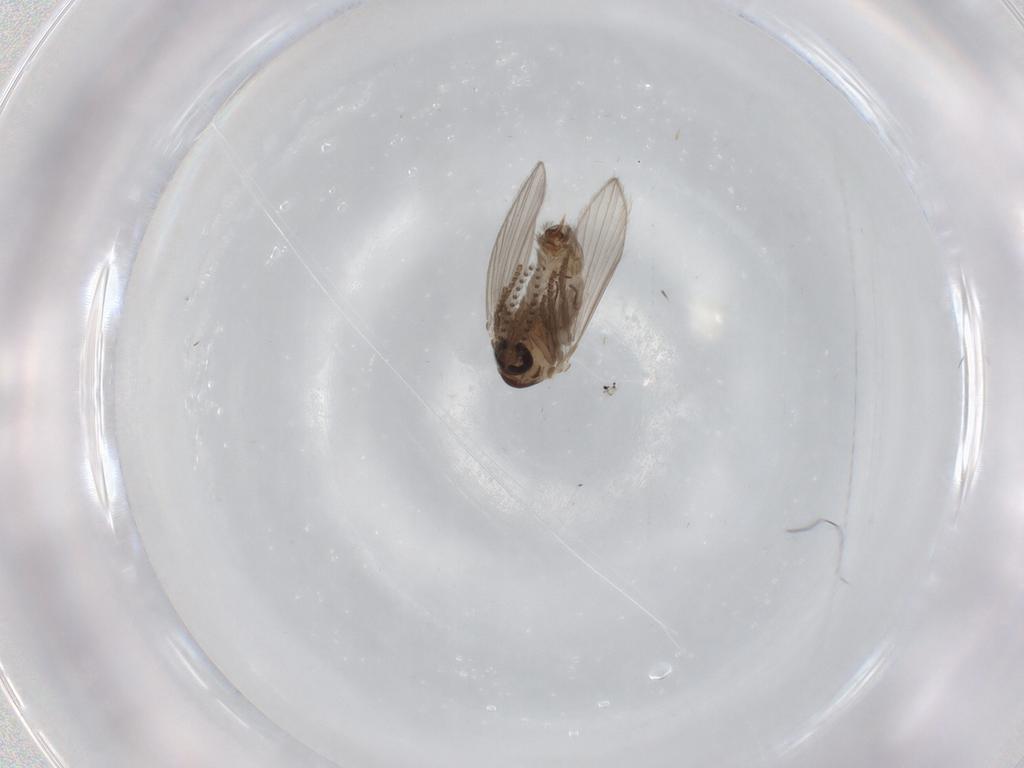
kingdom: Animalia
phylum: Arthropoda
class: Insecta
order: Diptera
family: Psychodidae
